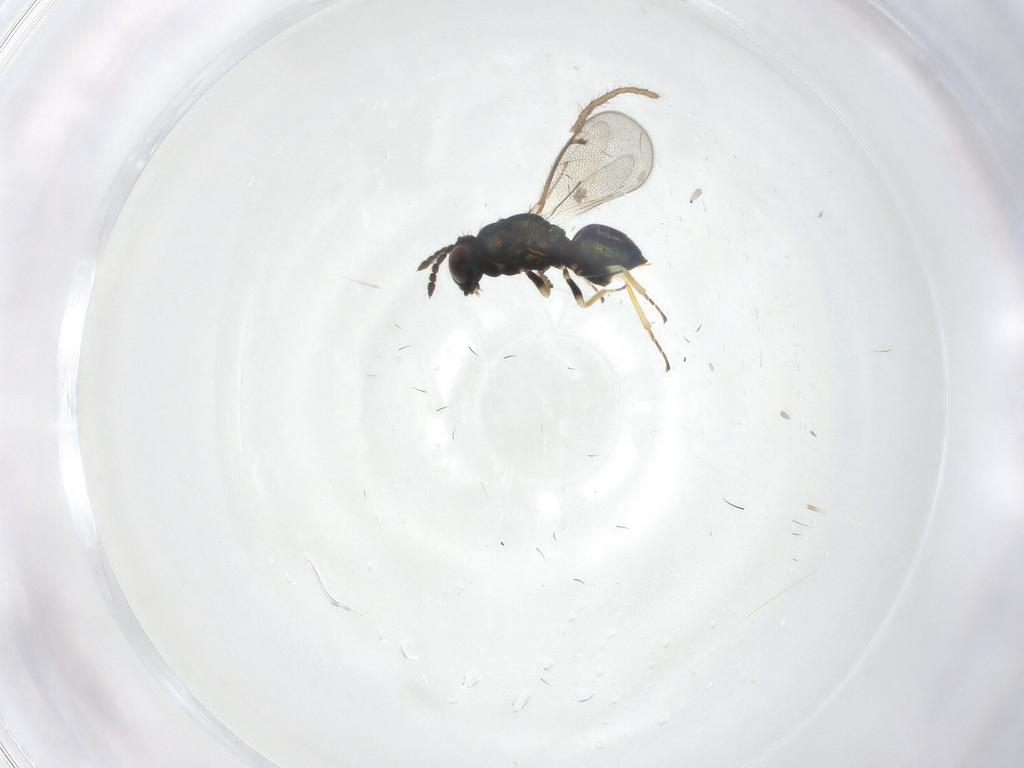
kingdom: Animalia
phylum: Arthropoda
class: Insecta
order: Hymenoptera
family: Eulophidae
